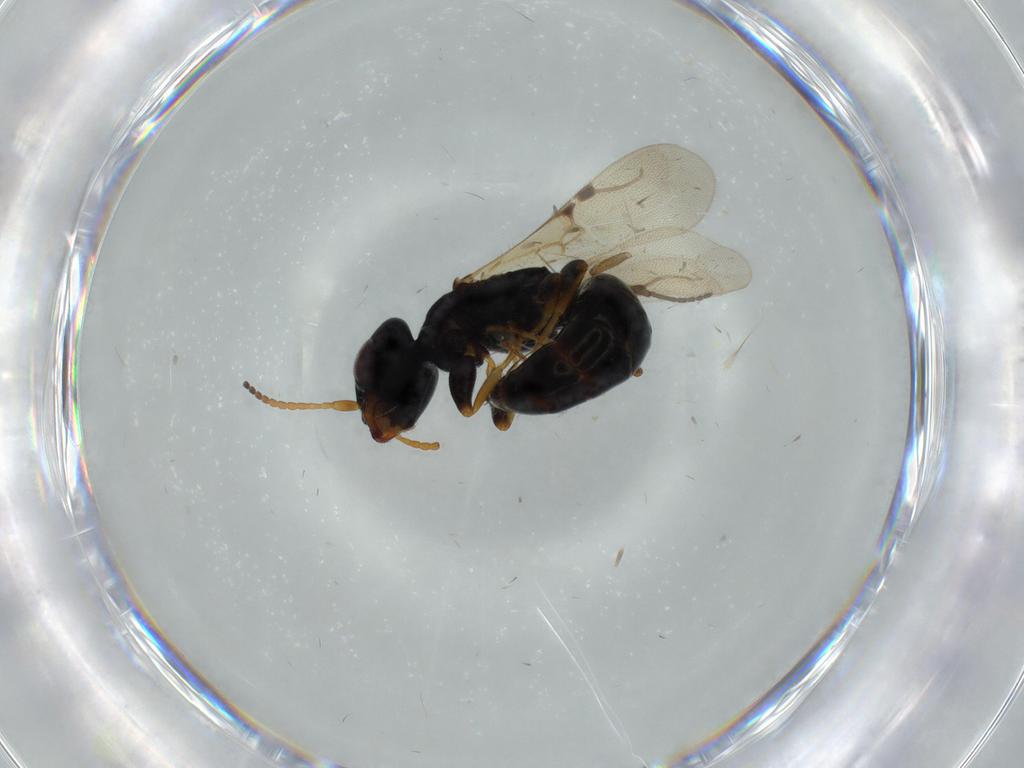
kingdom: Animalia
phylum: Arthropoda
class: Insecta
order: Hymenoptera
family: Bethylidae
